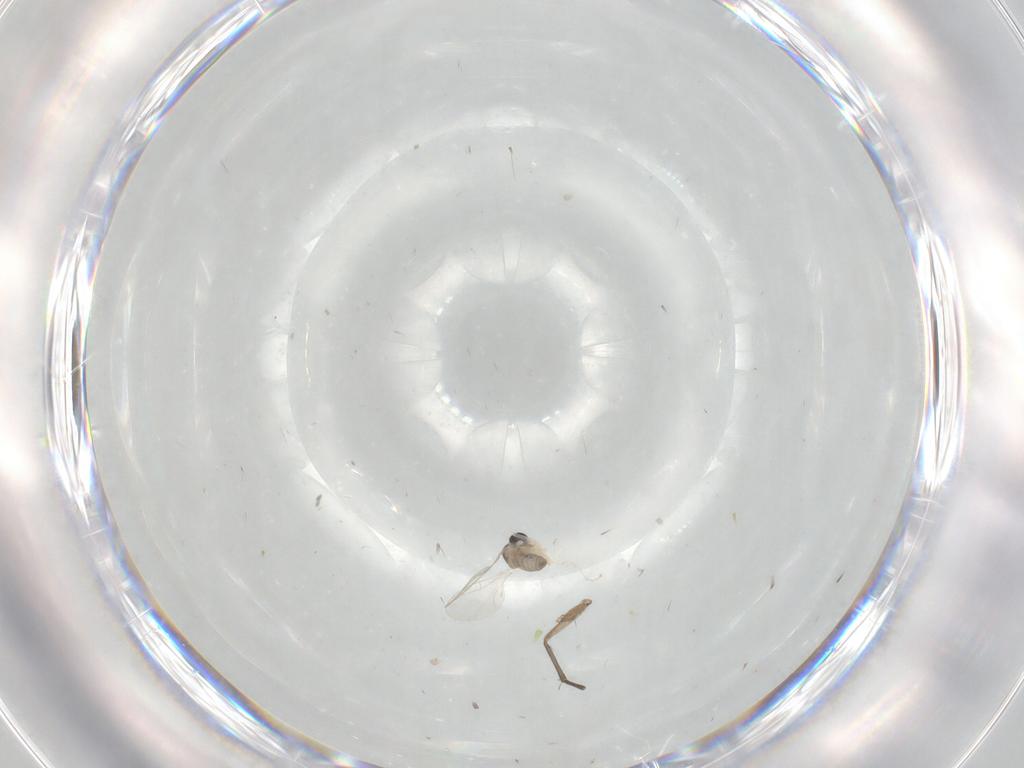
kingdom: Animalia
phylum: Arthropoda
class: Insecta
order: Diptera
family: Cecidomyiidae
